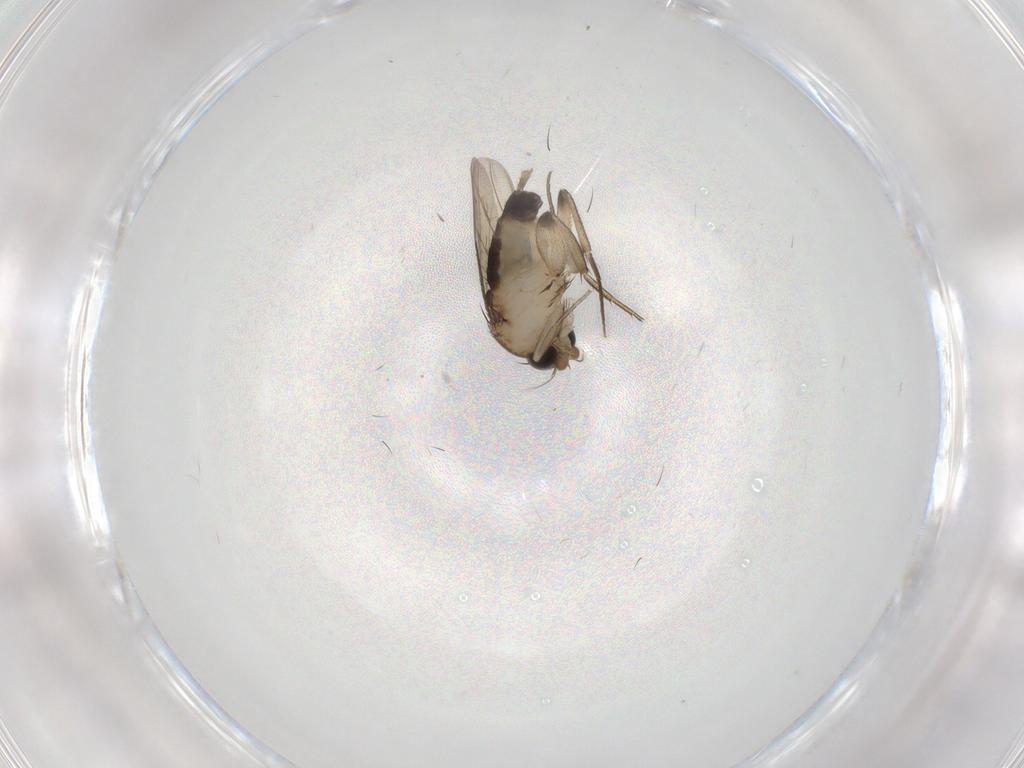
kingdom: Animalia
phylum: Arthropoda
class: Insecta
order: Diptera
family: Phoridae
